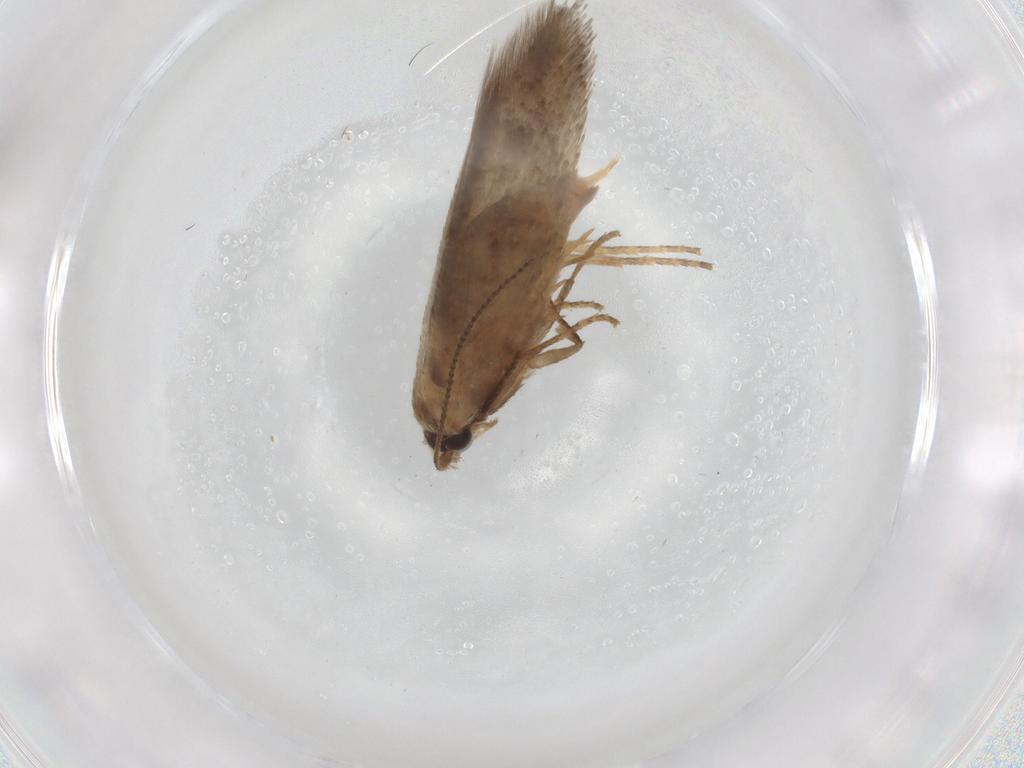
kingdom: Animalia
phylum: Arthropoda
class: Insecta
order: Lepidoptera
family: Nepticulidae
